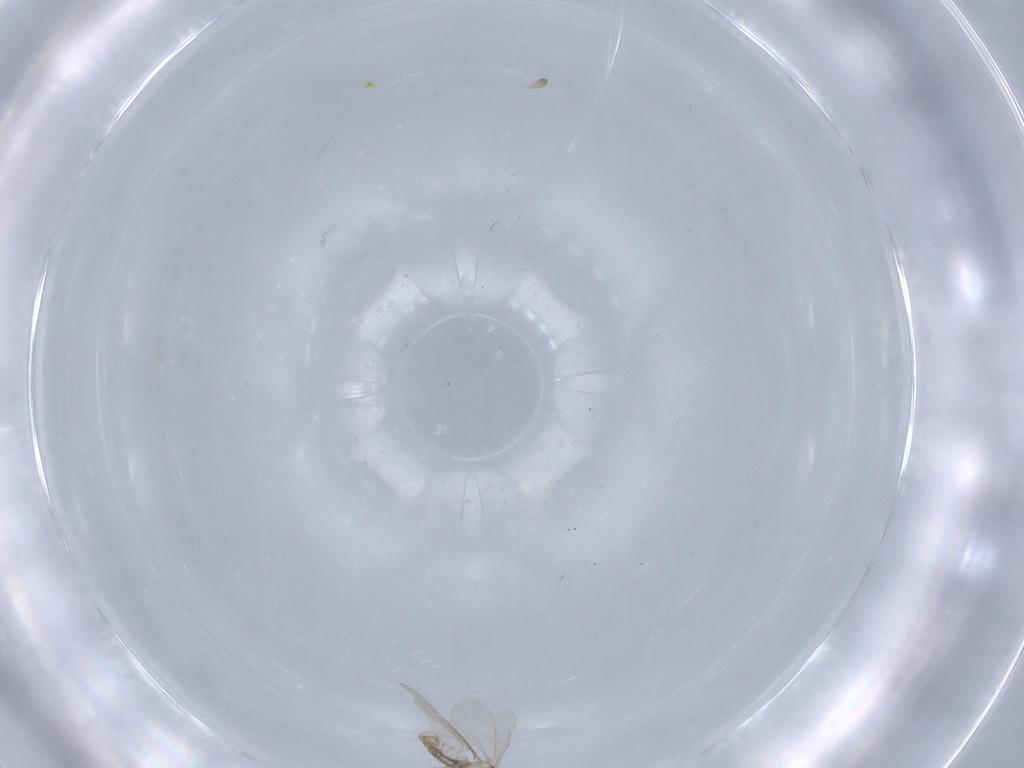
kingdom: Animalia
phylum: Arthropoda
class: Insecta
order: Diptera
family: Cecidomyiidae
